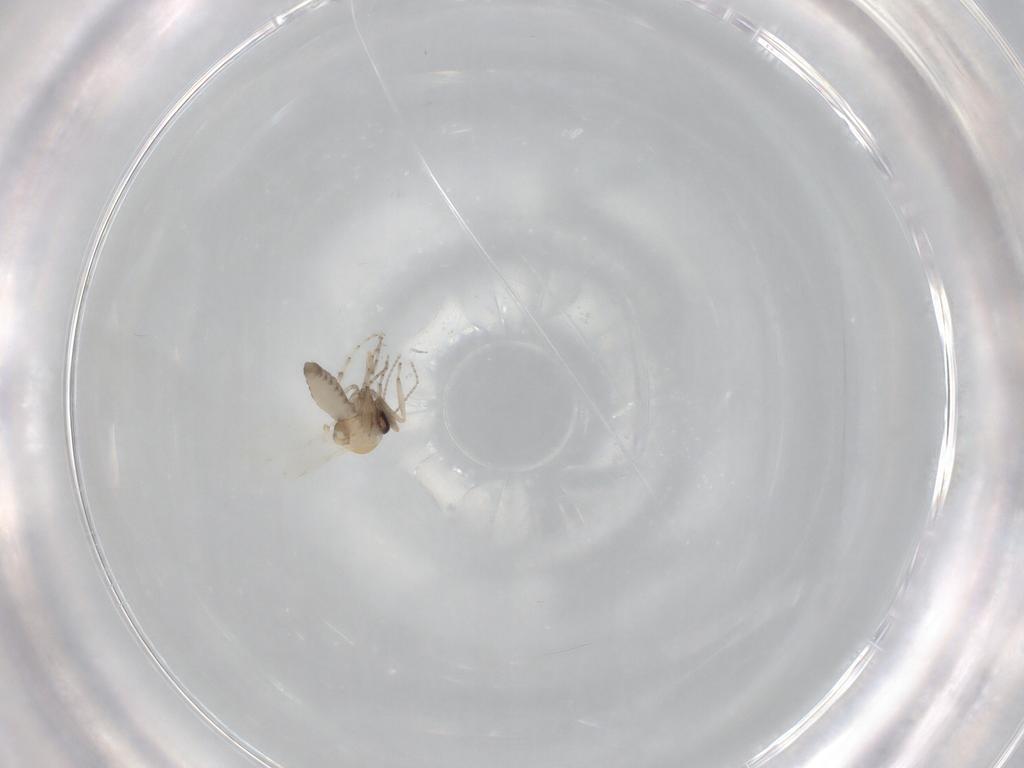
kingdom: Animalia
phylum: Arthropoda
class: Insecta
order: Diptera
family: Ceratopogonidae
